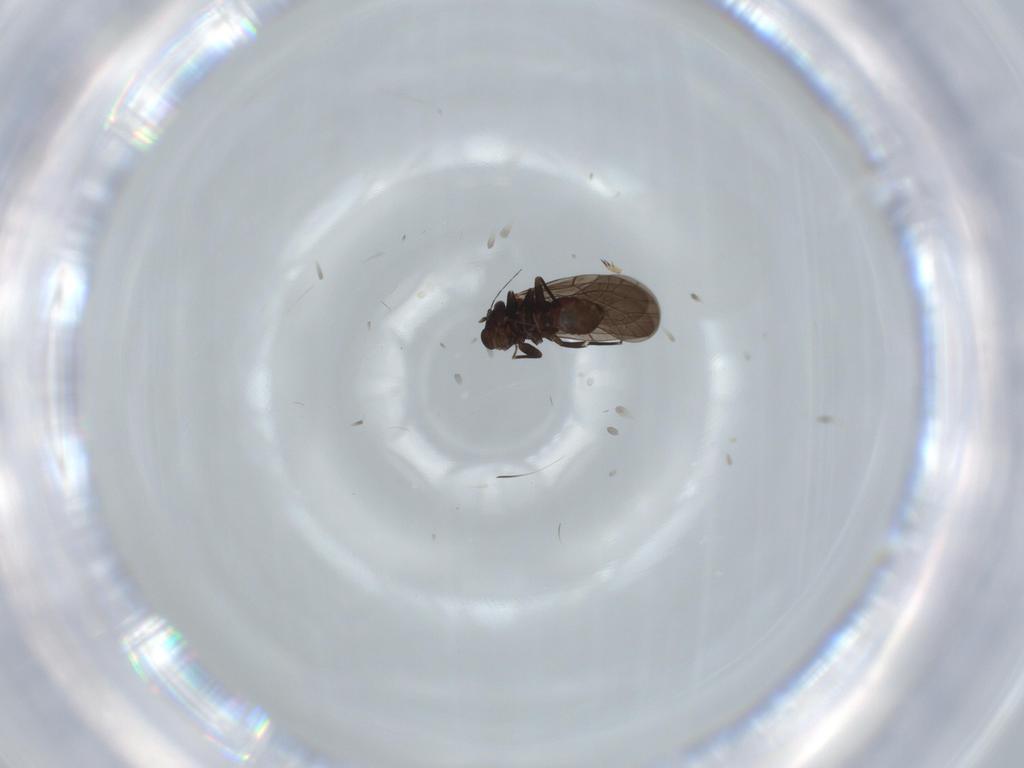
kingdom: Animalia
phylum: Arthropoda
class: Insecta
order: Psocodea
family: Lepidopsocidae
